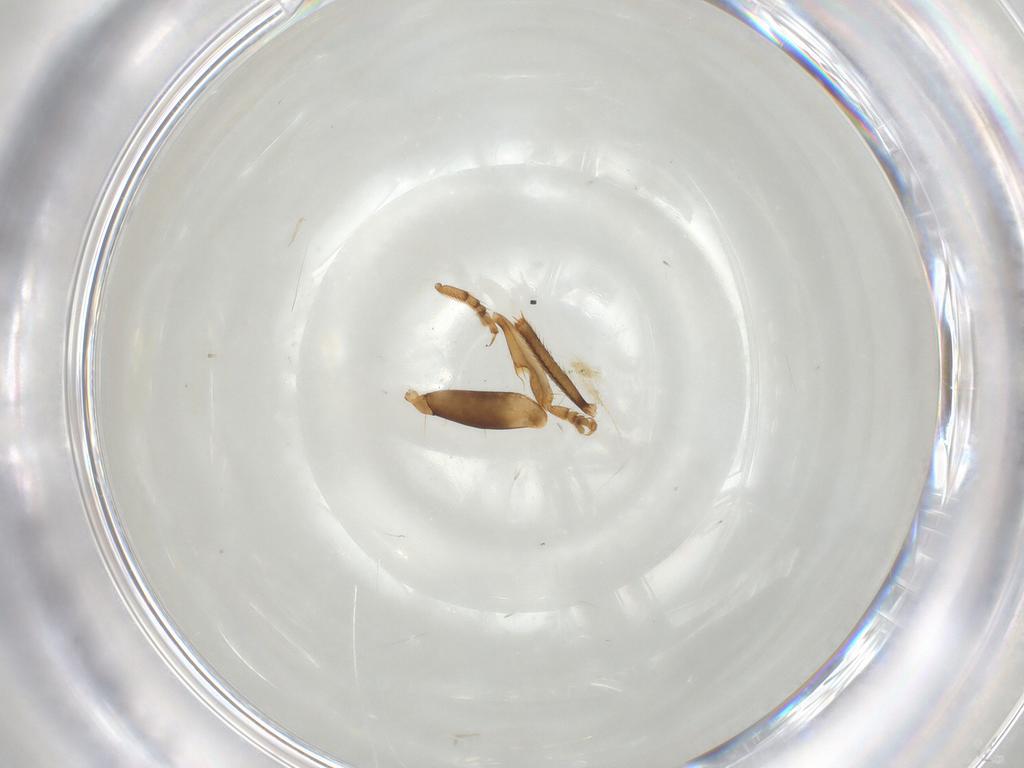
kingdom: Animalia
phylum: Arthropoda
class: Insecta
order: Coleoptera
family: Carabidae
